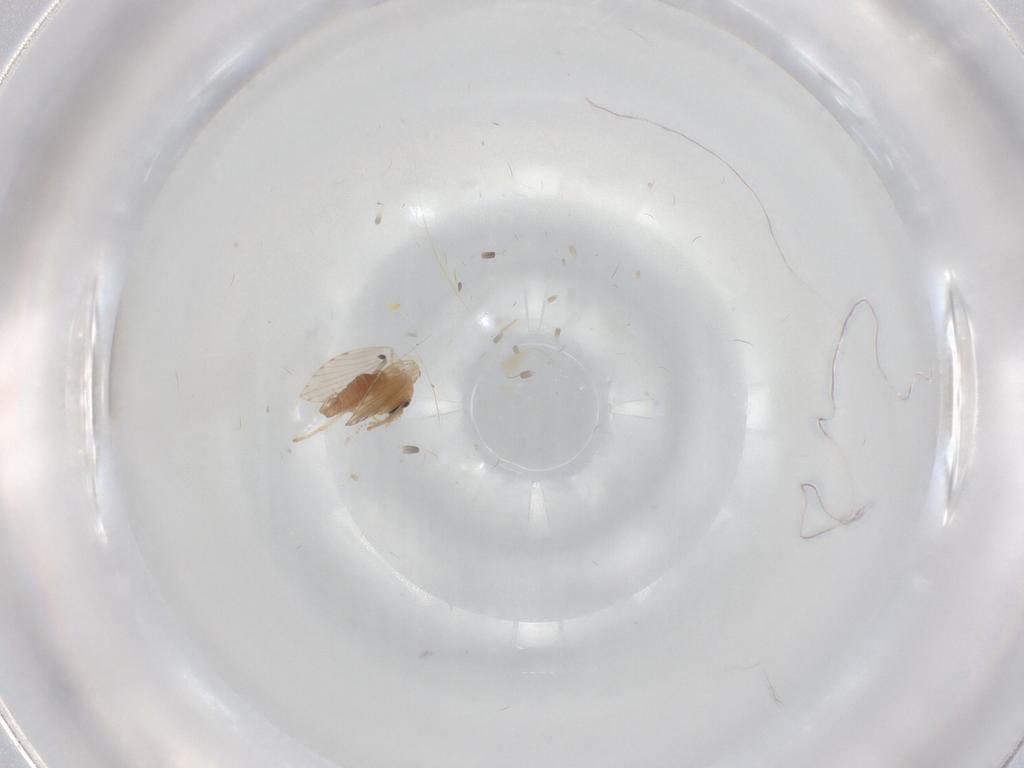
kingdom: Animalia
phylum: Arthropoda
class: Insecta
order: Diptera
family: Psychodidae
